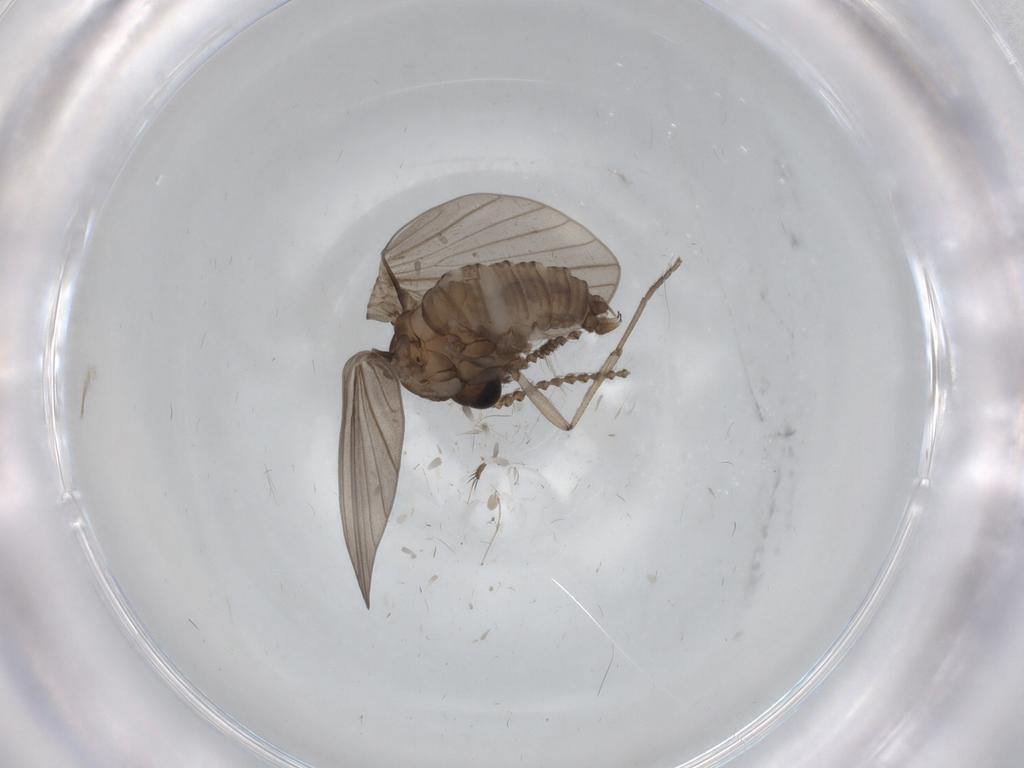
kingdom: Animalia
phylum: Arthropoda
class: Insecta
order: Diptera
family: Psychodidae
